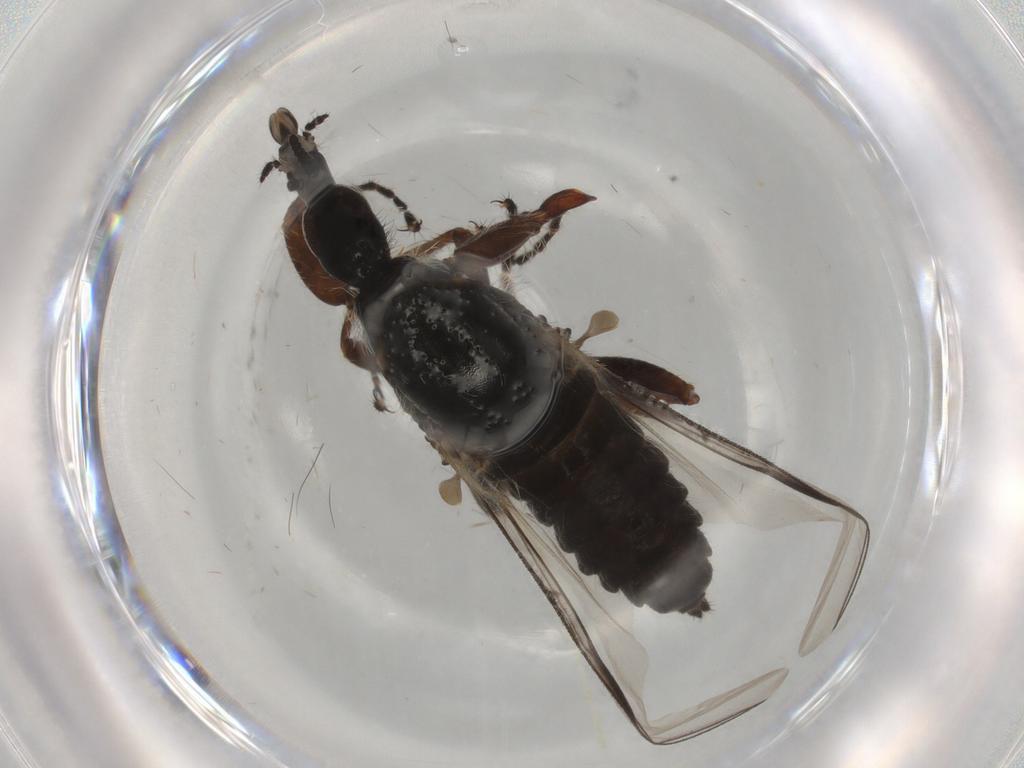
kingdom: Animalia
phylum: Arthropoda
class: Insecta
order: Diptera
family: Bibionidae
